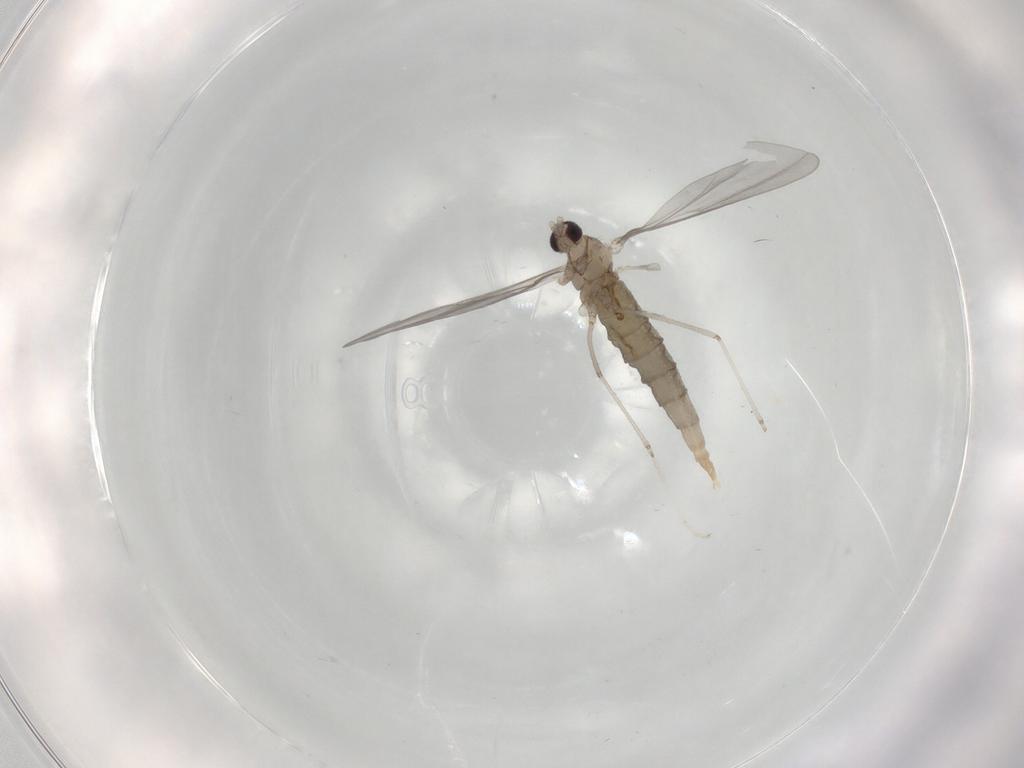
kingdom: Animalia
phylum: Arthropoda
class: Insecta
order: Diptera
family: Cecidomyiidae
